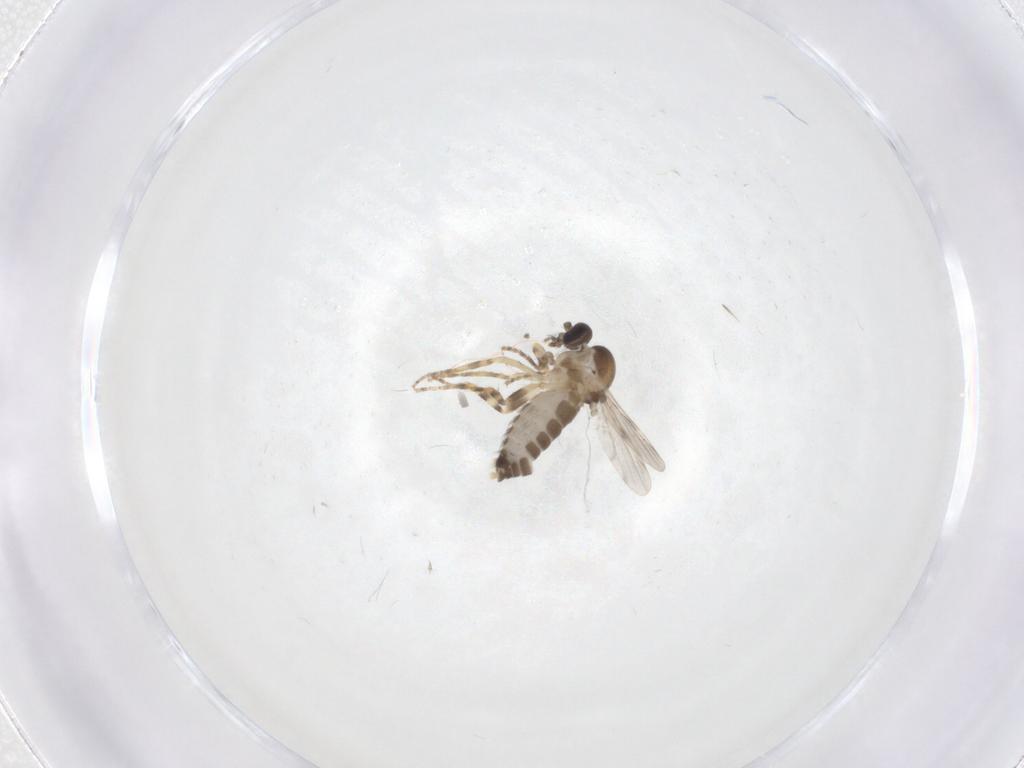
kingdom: Animalia
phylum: Arthropoda
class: Insecta
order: Diptera
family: Ceratopogonidae
